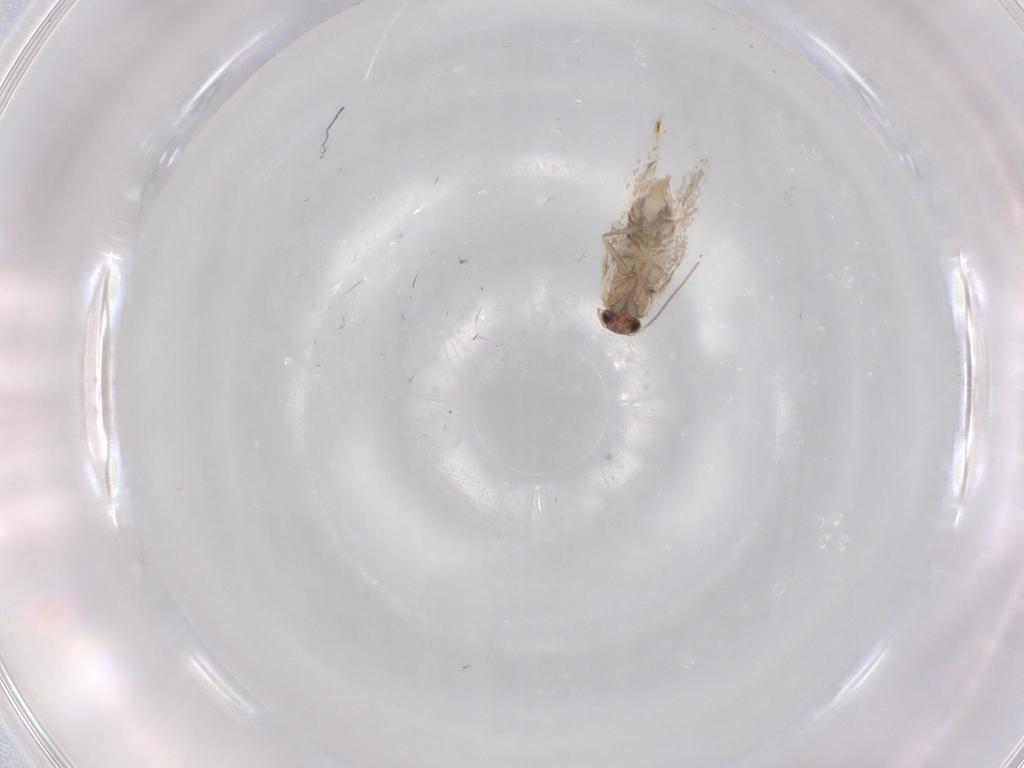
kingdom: Animalia
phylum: Arthropoda
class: Insecta
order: Lepidoptera
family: Tineidae
